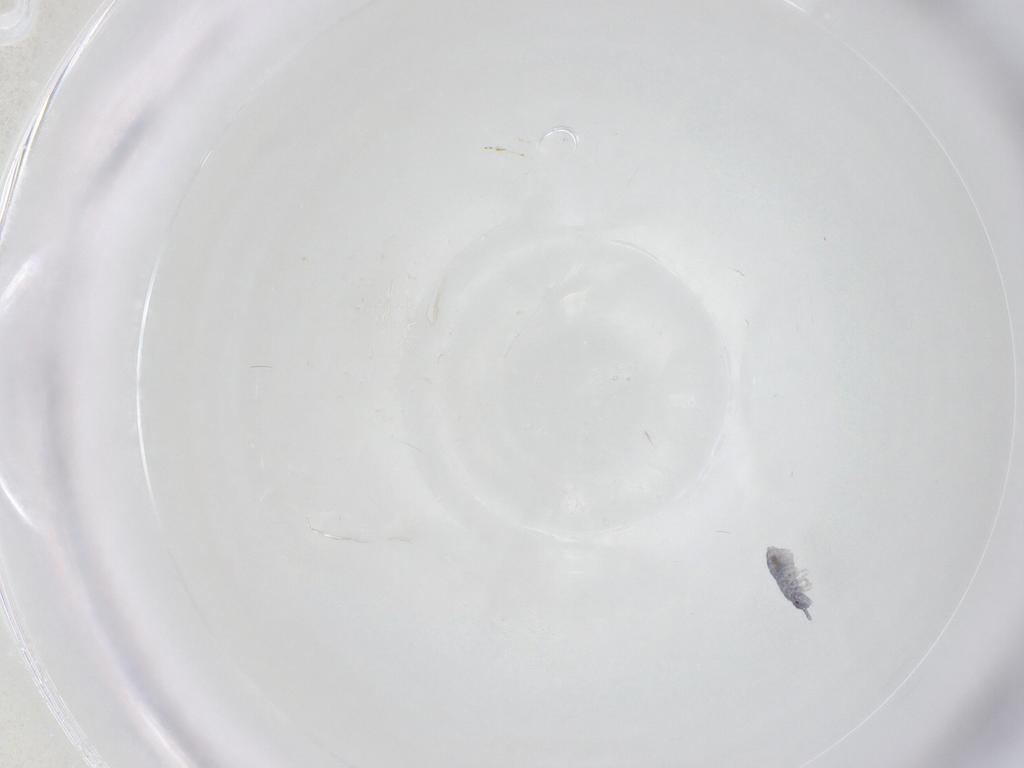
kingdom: Animalia
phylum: Arthropoda
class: Collembola
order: Poduromorpha
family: Hypogastruridae
